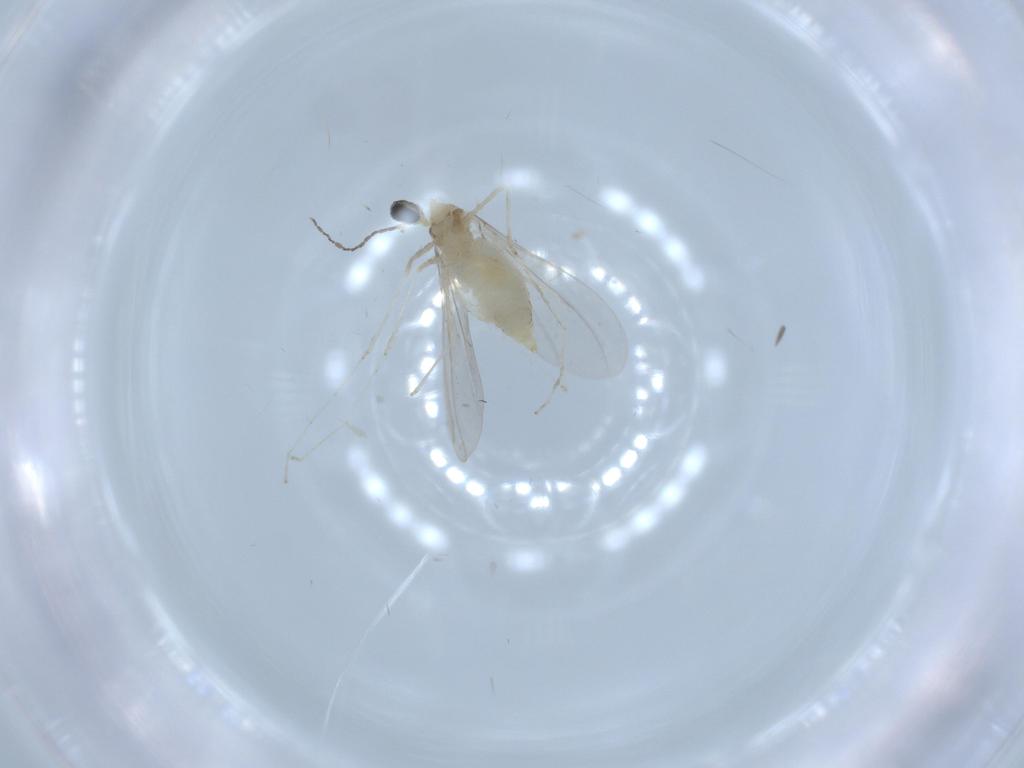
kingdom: Animalia
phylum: Arthropoda
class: Insecta
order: Diptera
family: Cecidomyiidae
